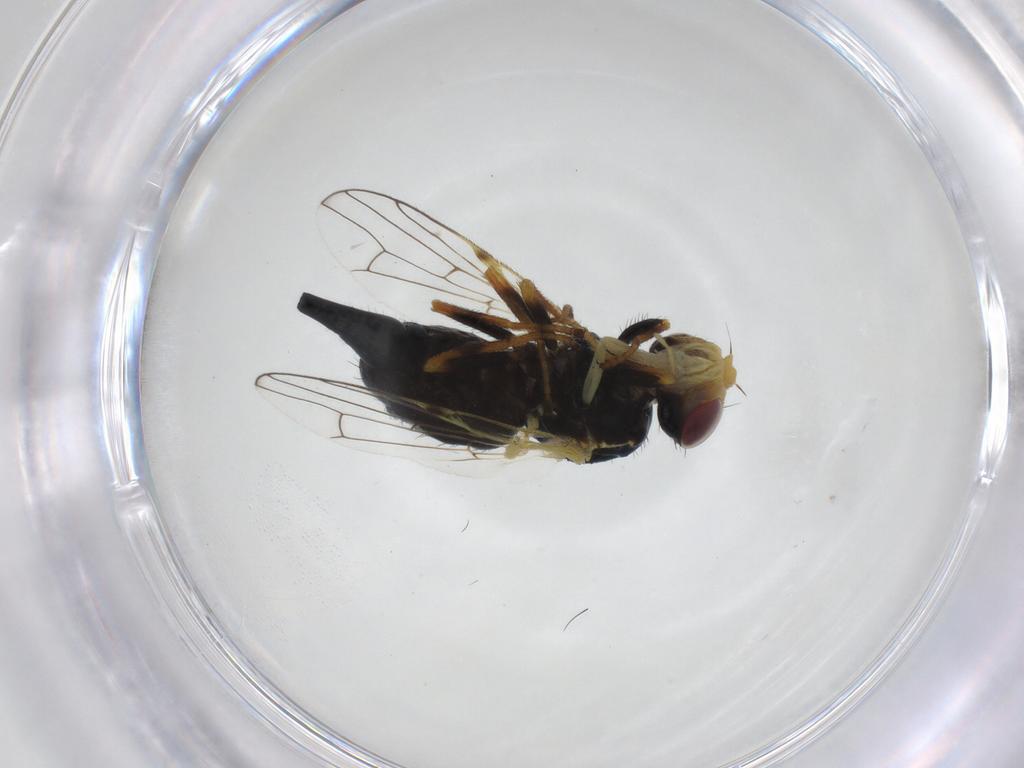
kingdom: Animalia
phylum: Arthropoda
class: Insecta
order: Diptera
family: Tephritidae
